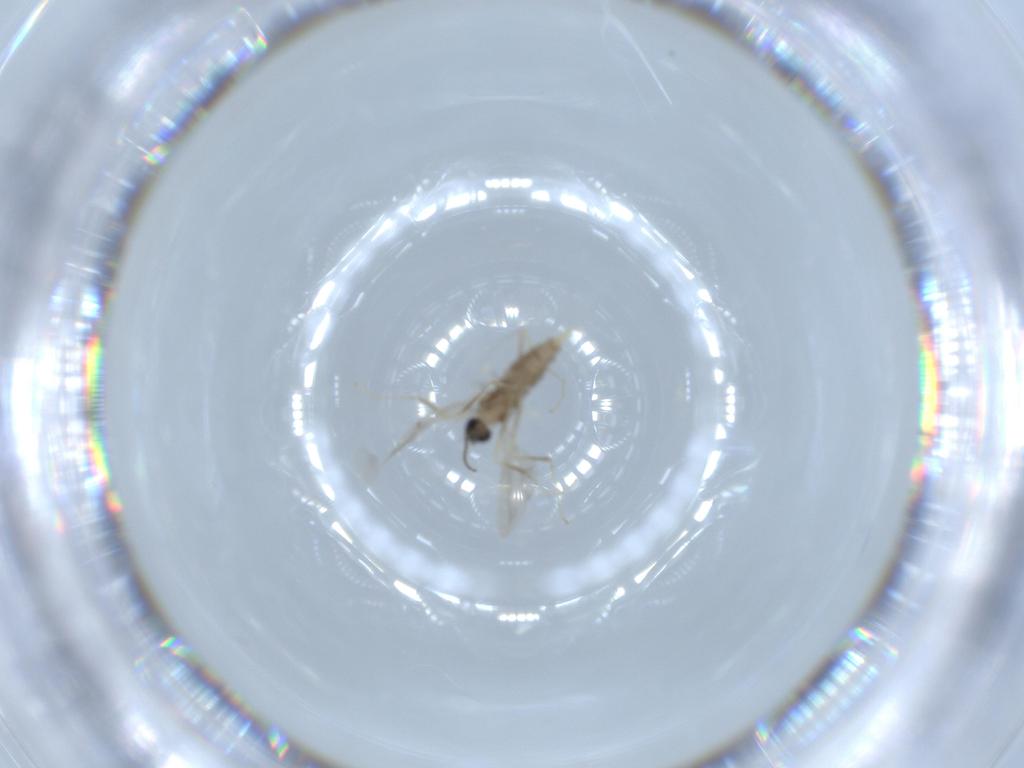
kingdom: Animalia
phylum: Arthropoda
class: Insecta
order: Diptera
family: Cecidomyiidae
